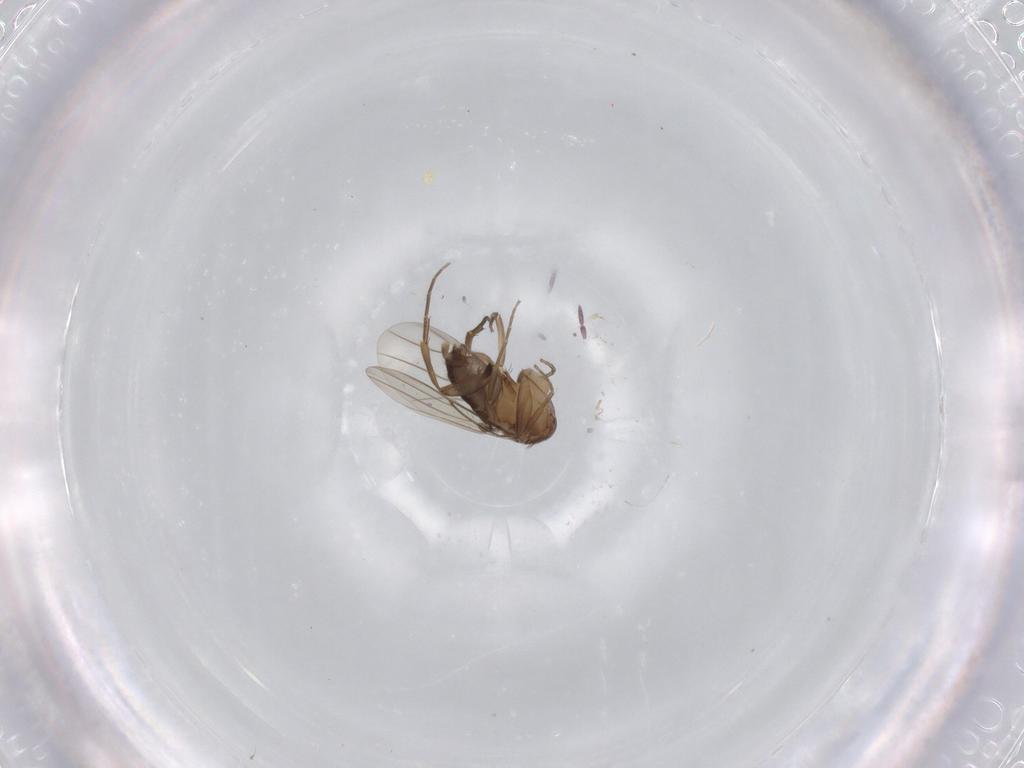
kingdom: Animalia
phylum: Arthropoda
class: Insecta
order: Diptera
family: Phoridae
